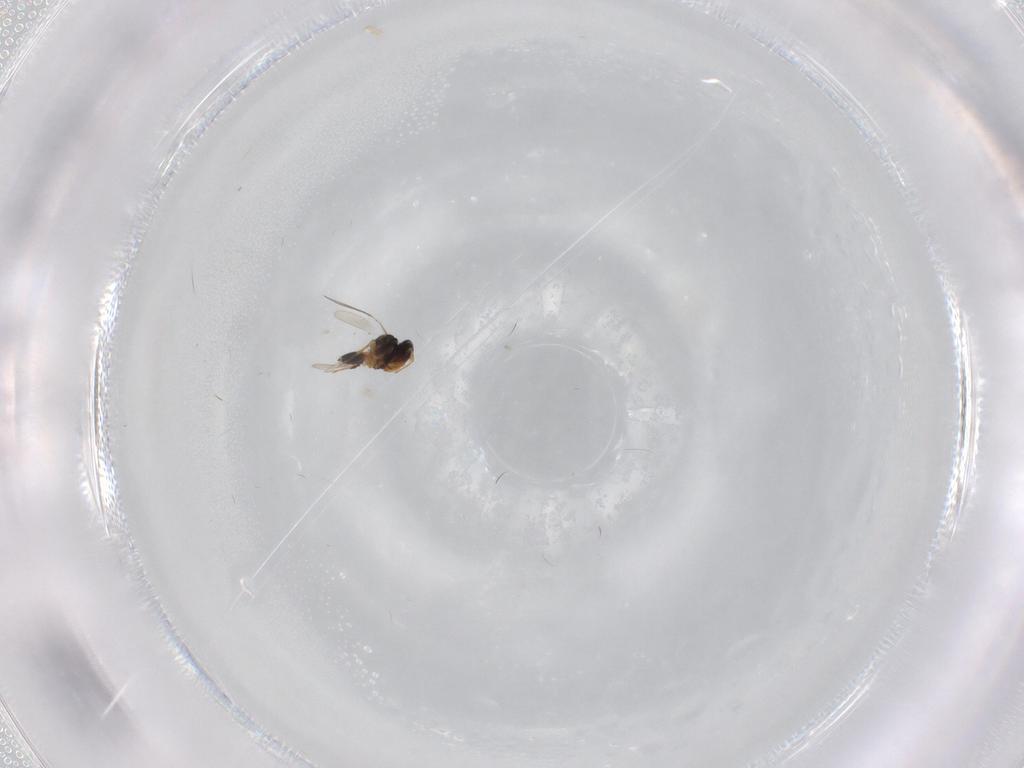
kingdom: Animalia
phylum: Arthropoda
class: Insecta
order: Hymenoptera
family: Platygastridae
